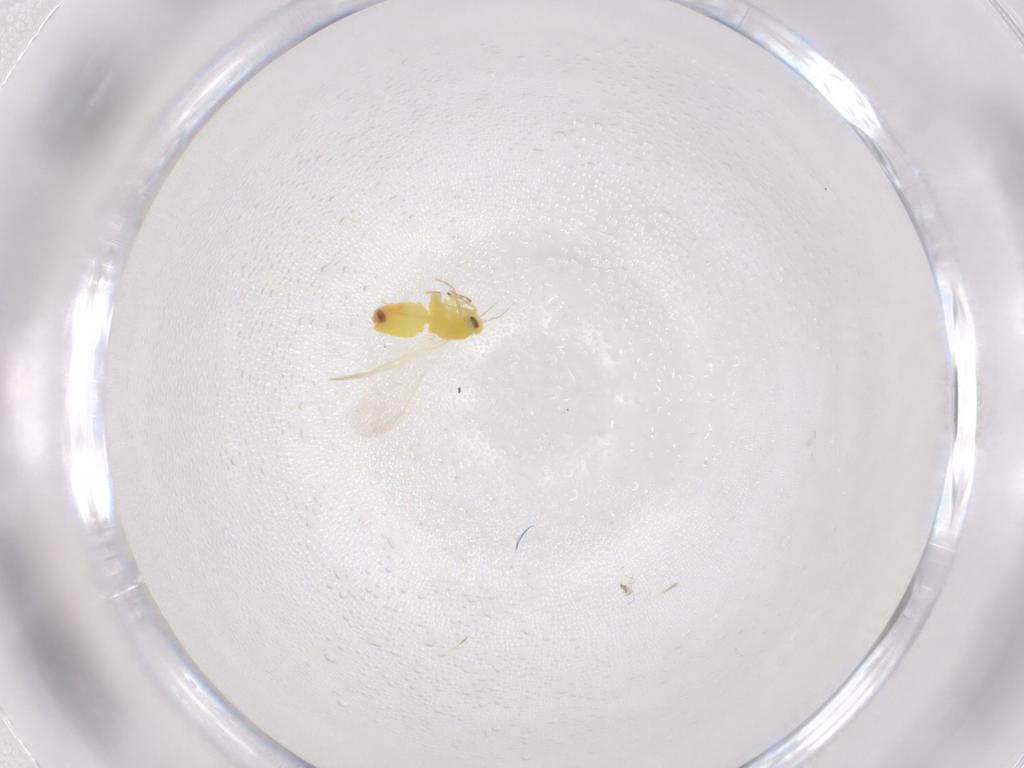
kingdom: Animalia
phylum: Arthropoda
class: Insecta
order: Hemiptera
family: Aleyrodidae
